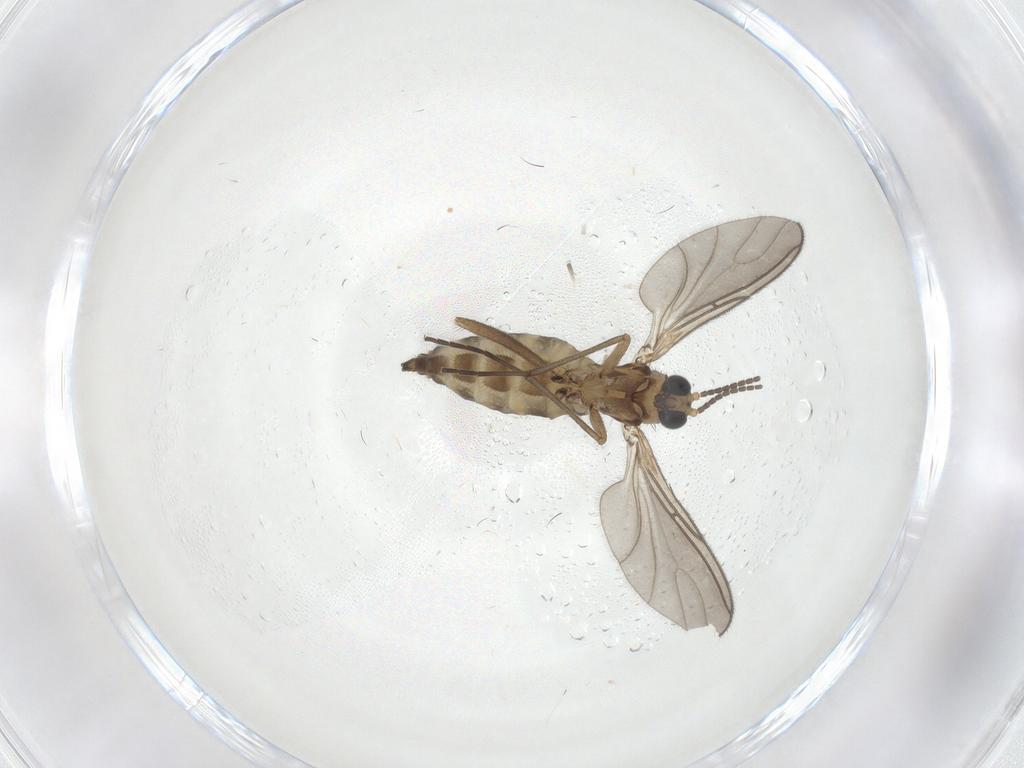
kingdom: Animalia
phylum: Arthropoda
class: Insecta
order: Diptera
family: Sciaridae
